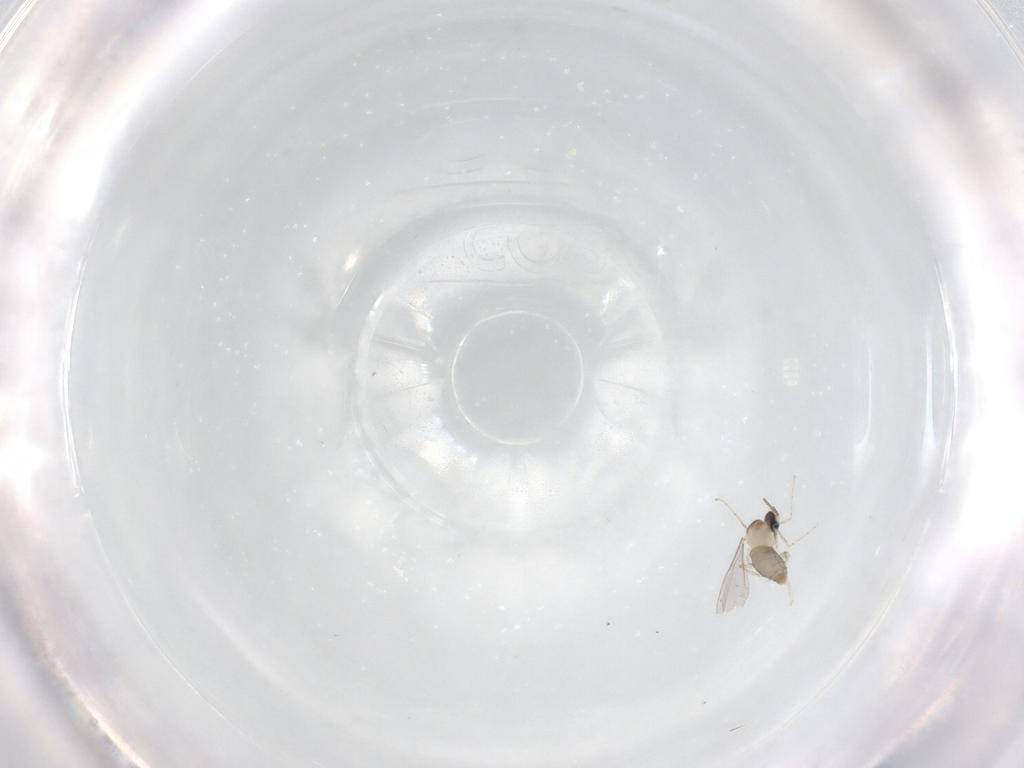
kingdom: Animalia
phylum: Arthropoda
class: Insecta
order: Diptera
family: Cecidomyiidae
